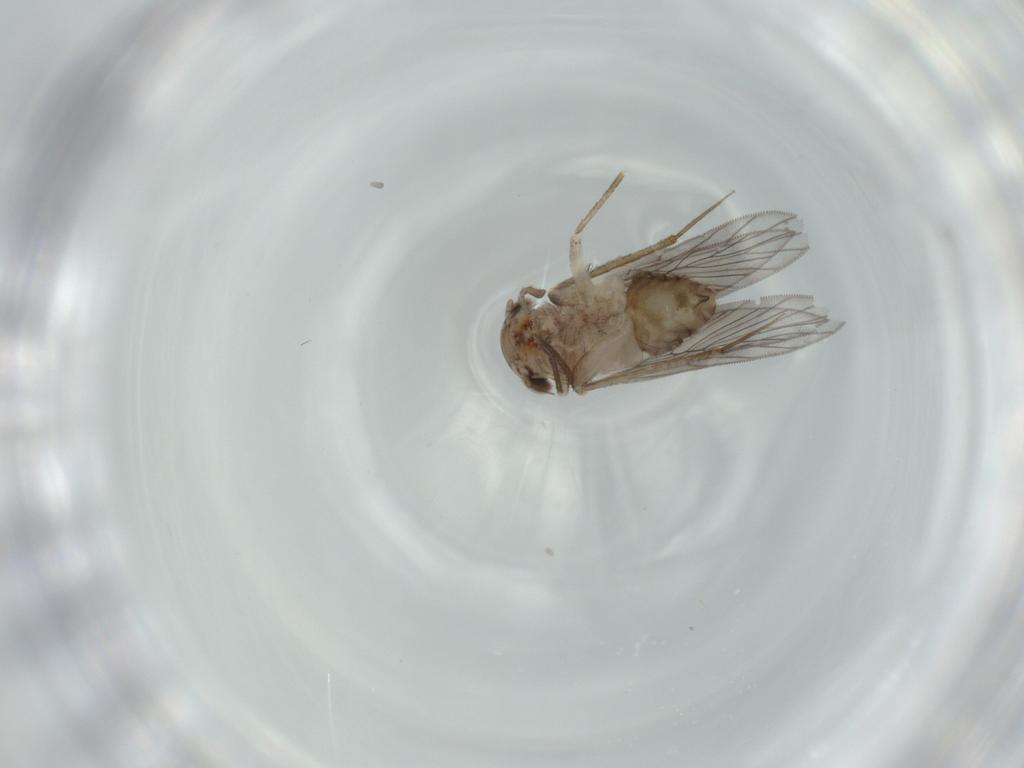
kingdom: Animalia
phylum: Arthropoda
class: Insecta
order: Psocodea
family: Lepidopsocidae
